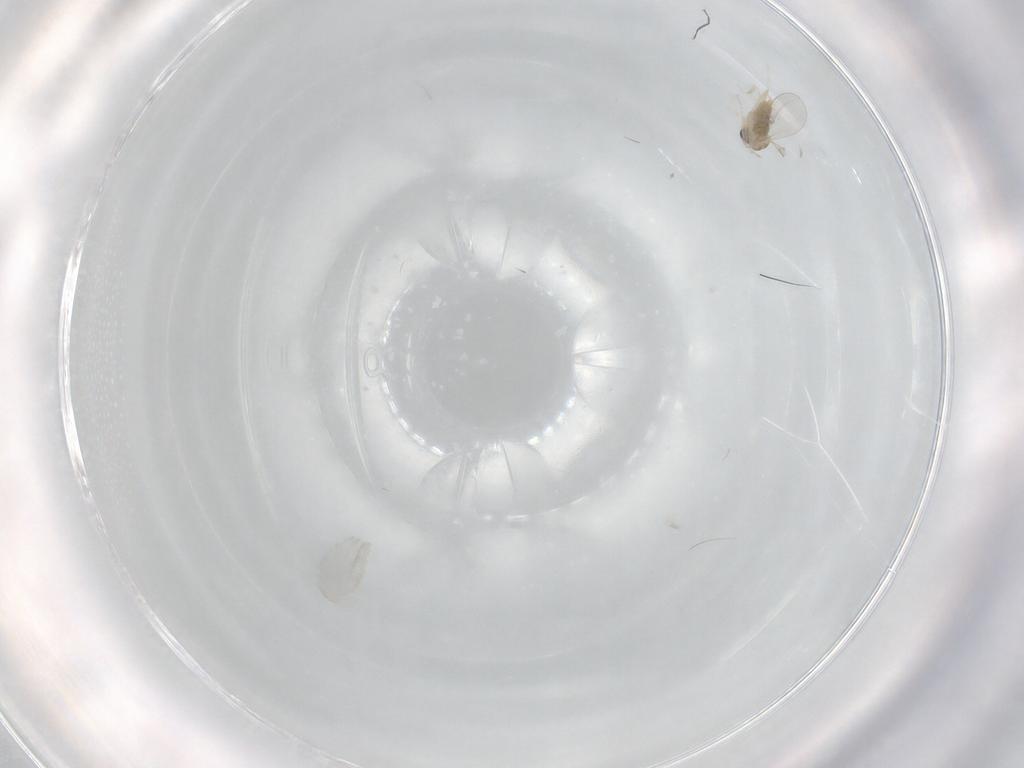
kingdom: Animalia
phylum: Arthropoda
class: Insecta
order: Diptera
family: Cecidomyiidae
